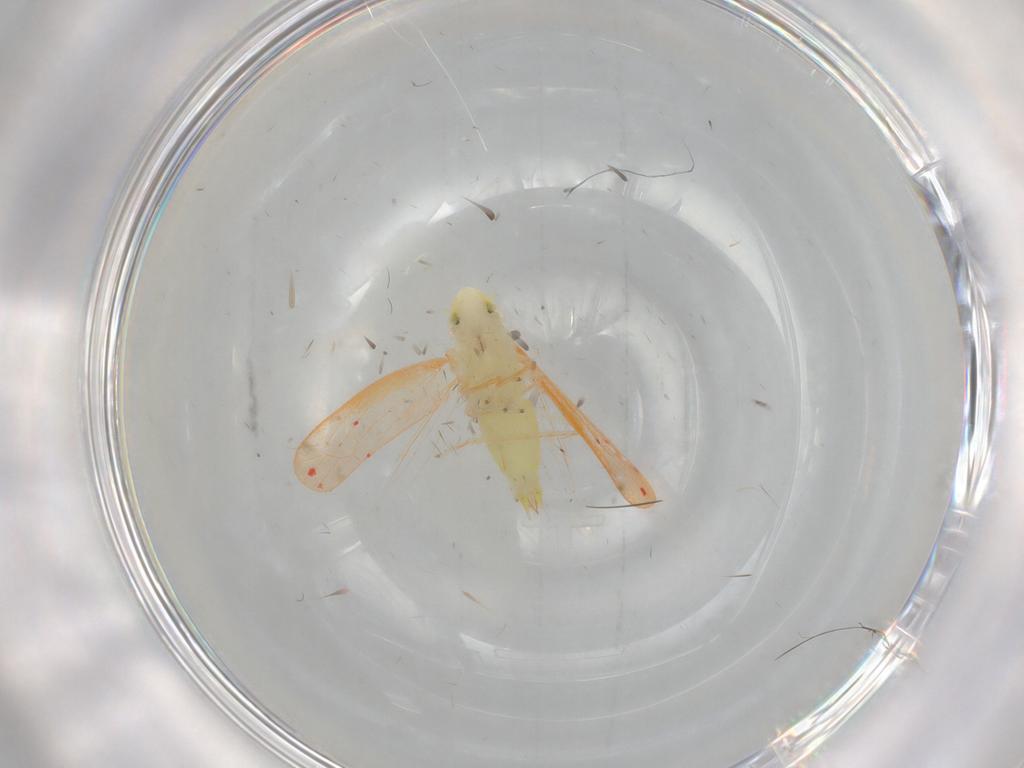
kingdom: Animalia
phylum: Arthropoda
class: Insecta
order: Hemiptera
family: Cicadellidae
